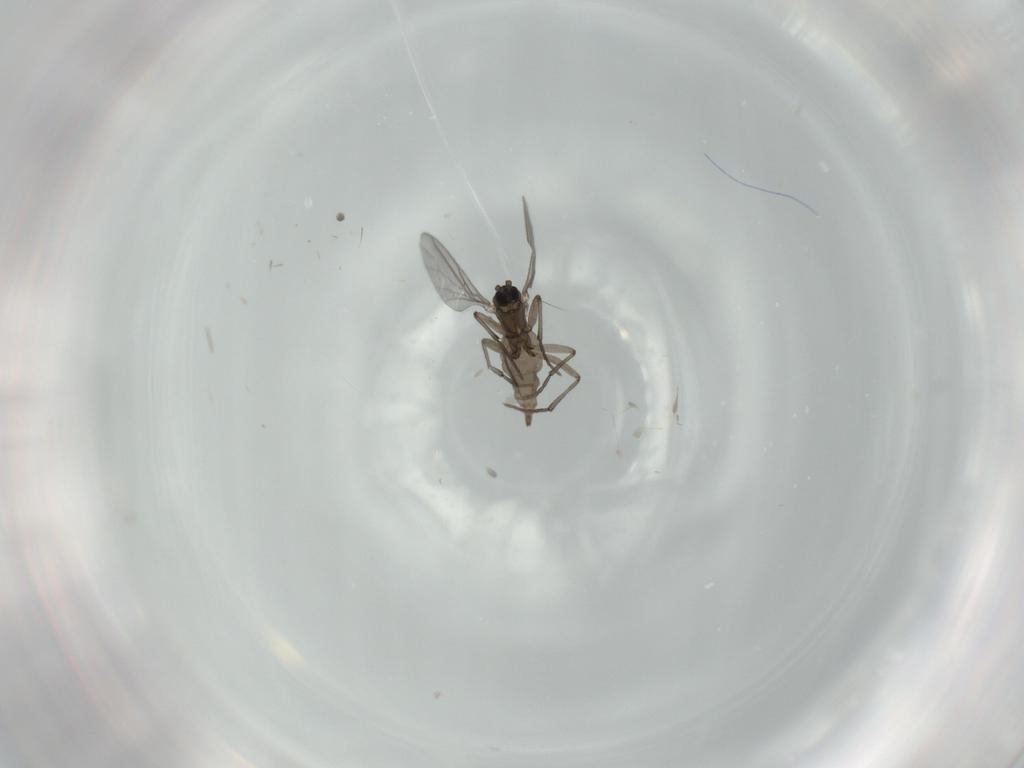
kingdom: Animalia
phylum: Arthropoda
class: Insecta
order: Diptera
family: Sciaridae
